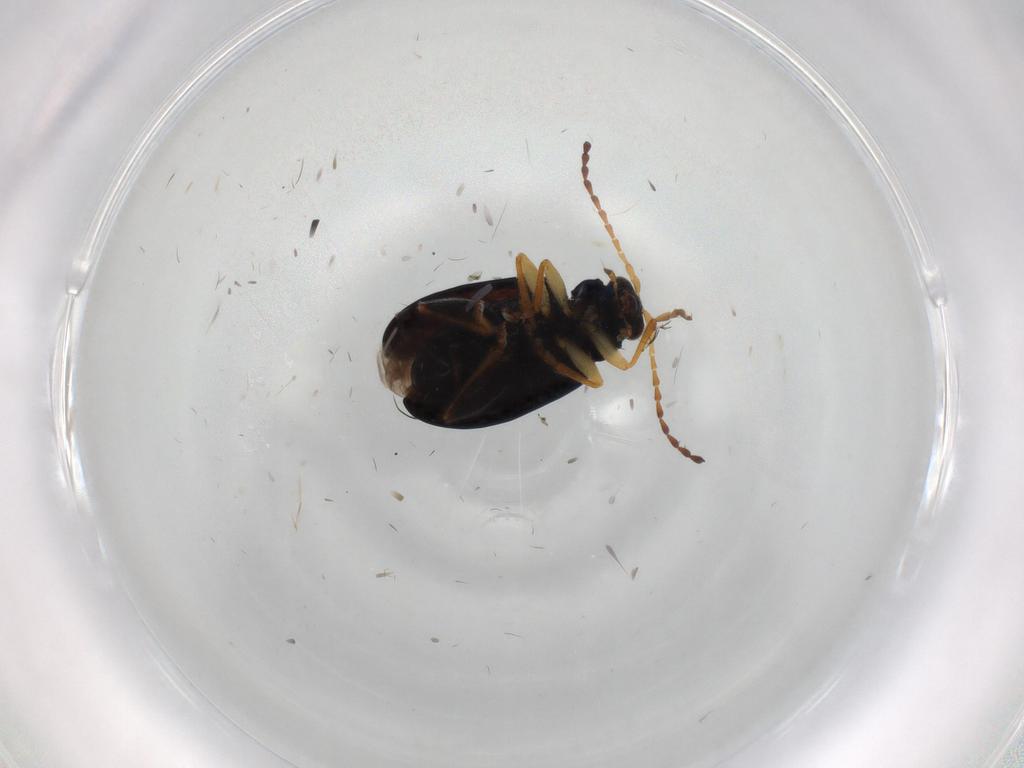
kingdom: Animalia
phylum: Arthropoda
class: Insecta
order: Coleoptera
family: Chrysomelidae
